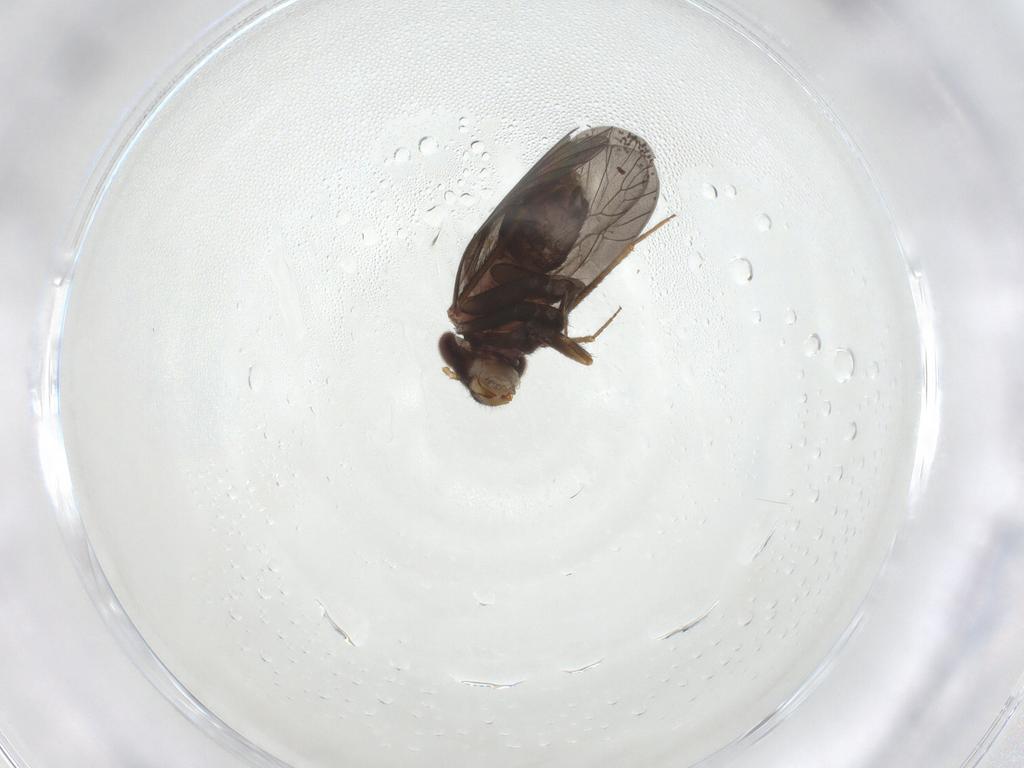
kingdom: Animalia
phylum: Arthropoda
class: Insecta
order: Psocodea
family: Lepidopsocidae
